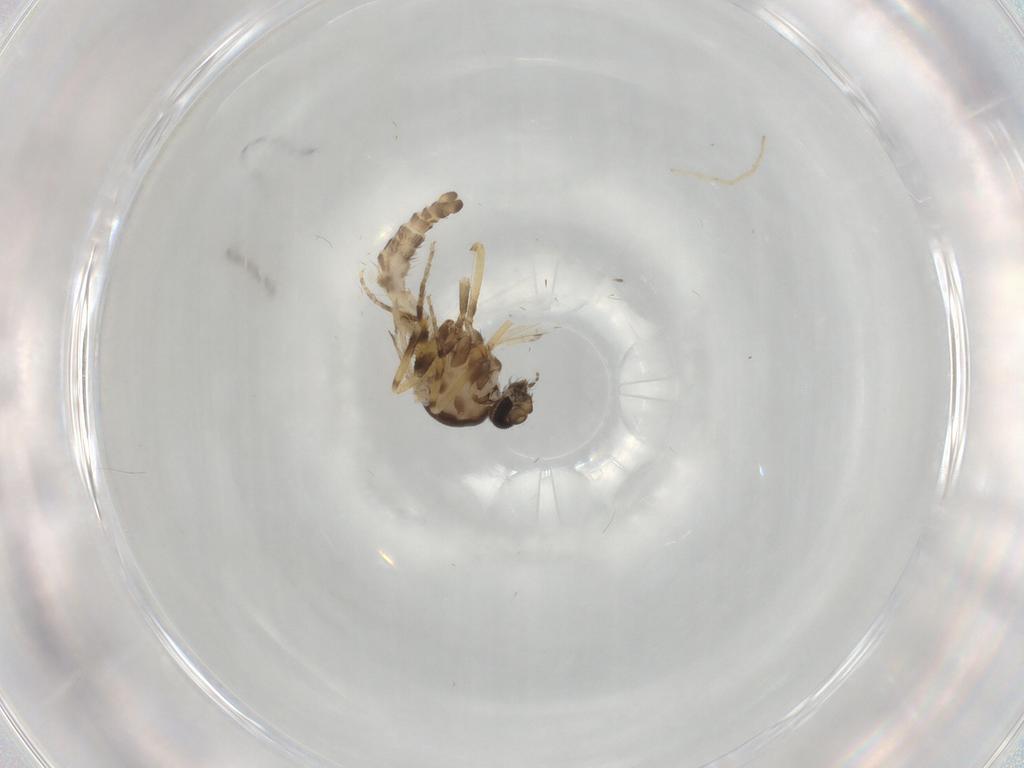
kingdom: Animalia
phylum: Arthropoda
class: Insecta
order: Diptera
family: Ceratopogonidae
